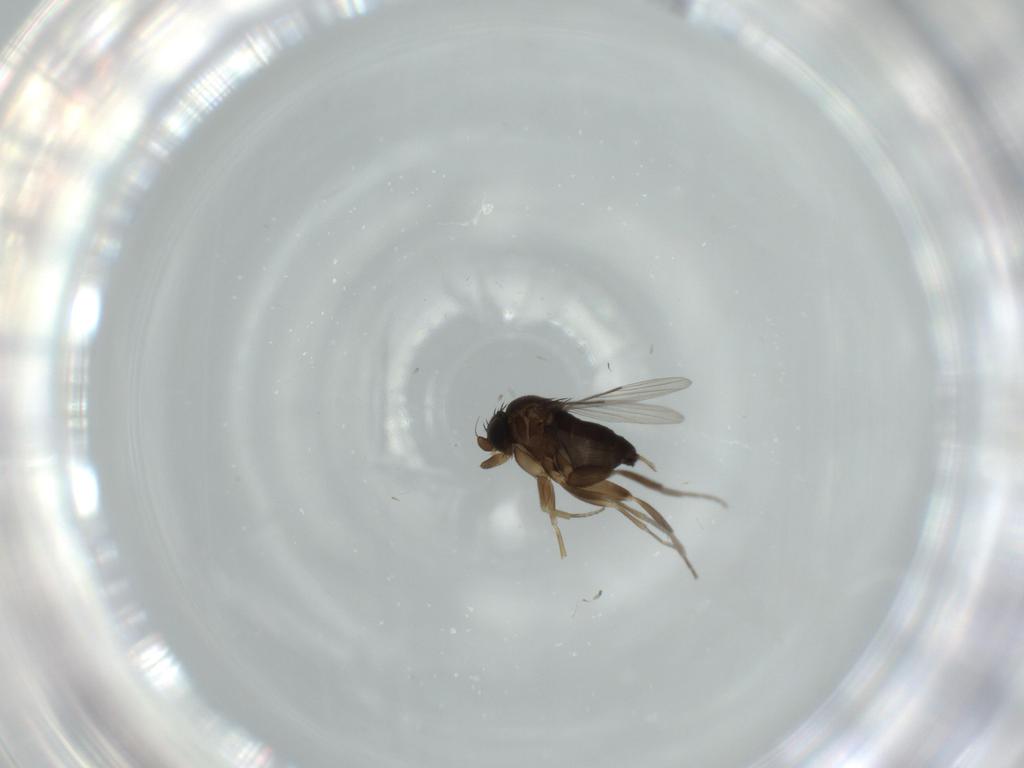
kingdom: Animalia
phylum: Arthropoda
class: Insecta
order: Diptera
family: Phoridae
